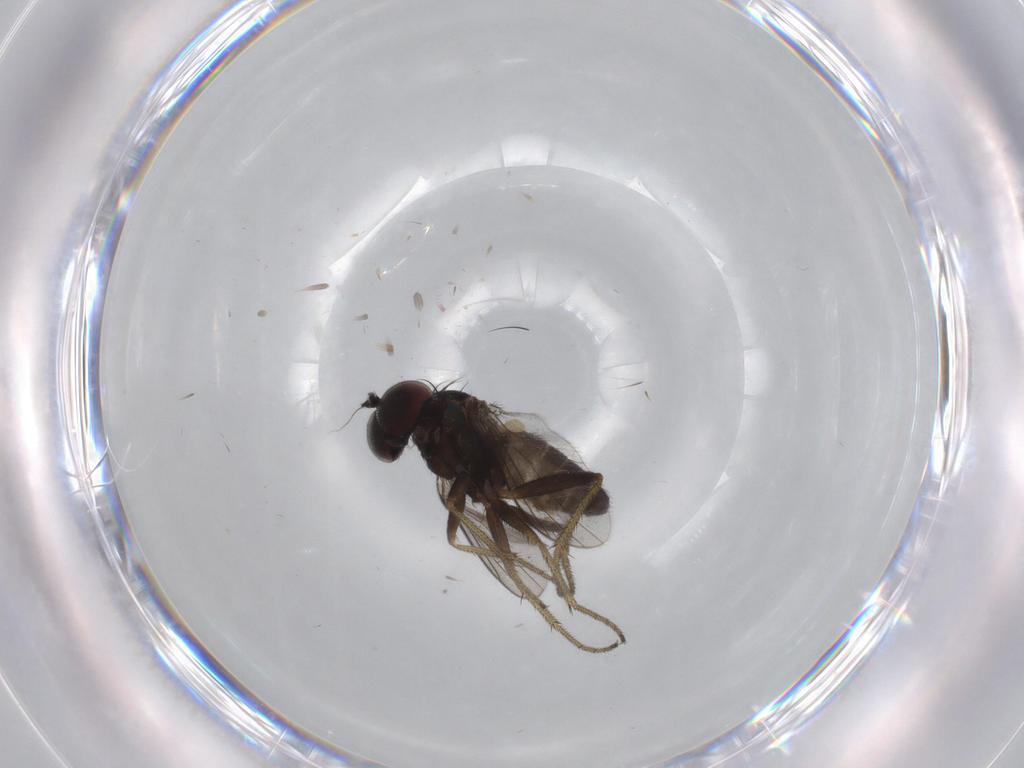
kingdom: Animalia
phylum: Arthropoda
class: Insecta
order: Diptera
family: Dolichopodidae
